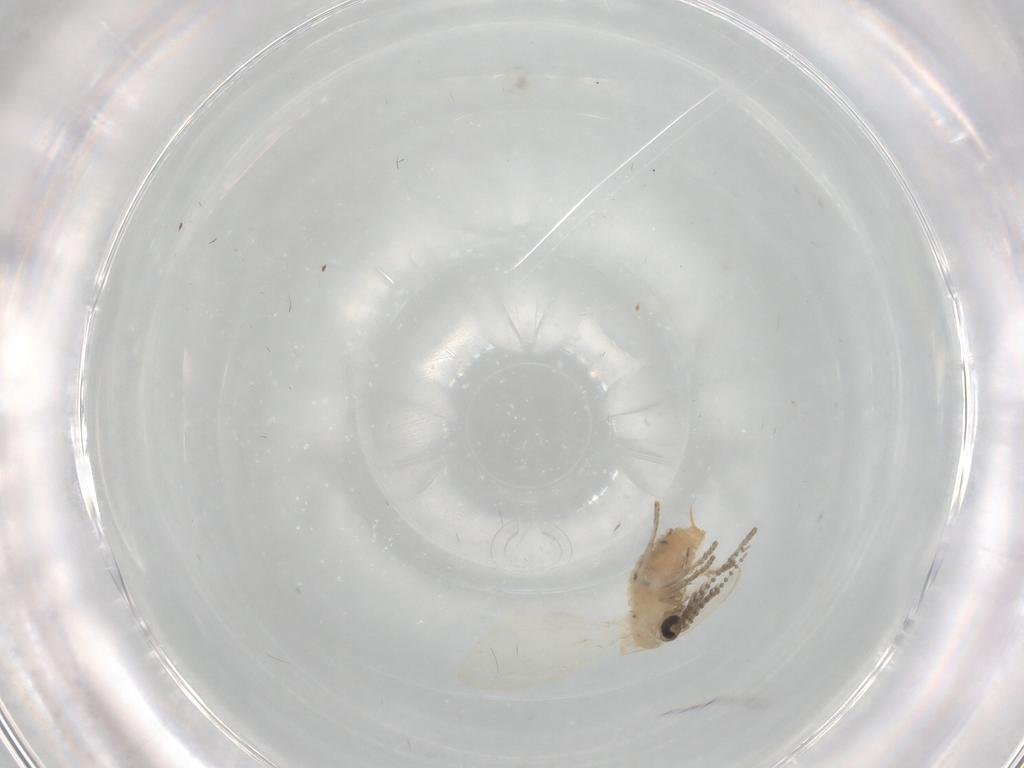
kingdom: Animalia
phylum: Arthropoda
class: Insecta
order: Diptera
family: Psychodidae
